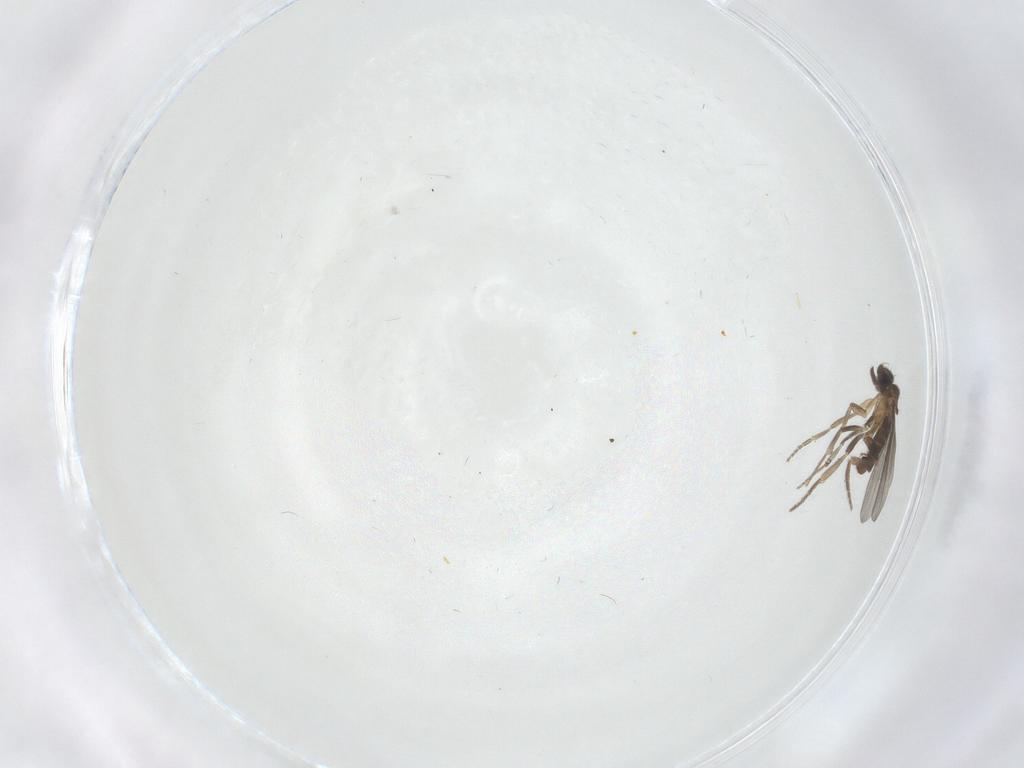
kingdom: Animalia
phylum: Arthropoda
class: Insecta
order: Diptera
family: Phoridae
